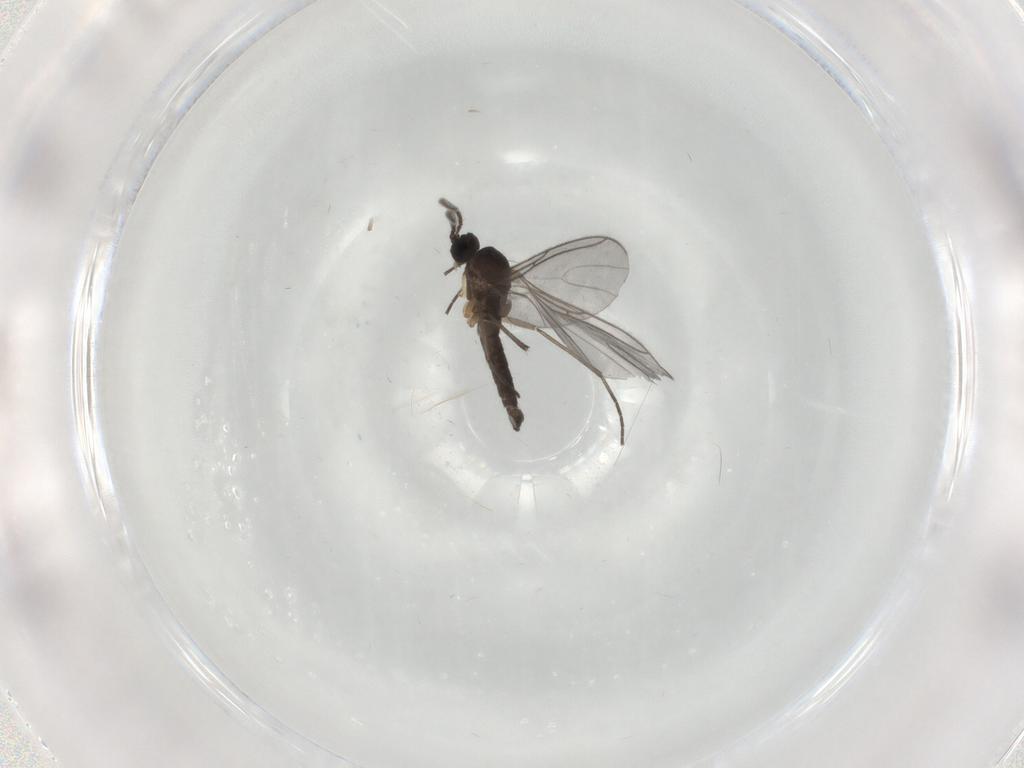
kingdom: Animalia
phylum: Arthropoda
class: Insecta
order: Diptera
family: Sciaridae
